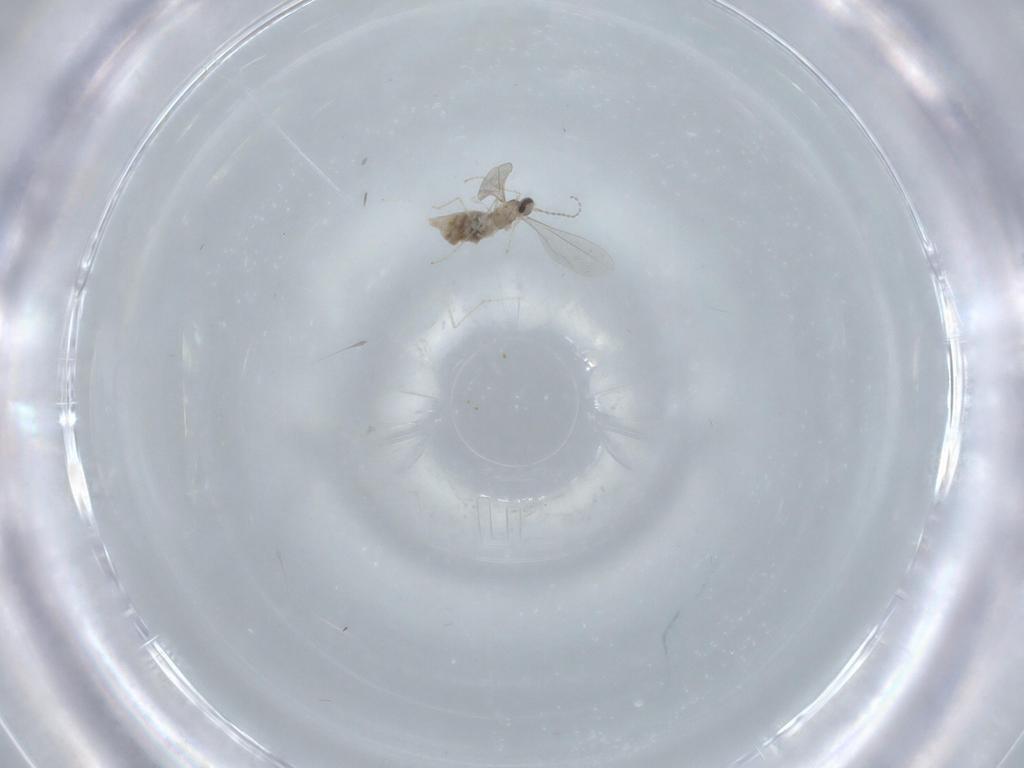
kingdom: Animalia
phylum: Arthropoda
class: Insecta
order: Diptera
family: Cecidomyiidae
